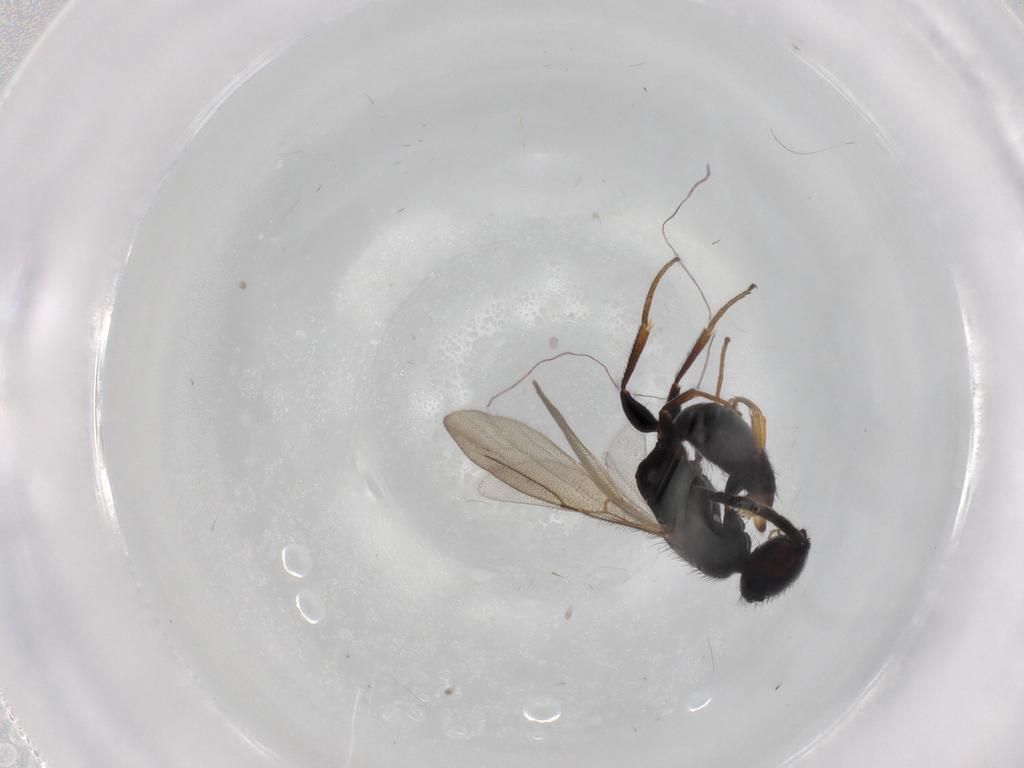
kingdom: Animalia
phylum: Arthropoda
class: Insecta
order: Hymenoptera
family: Bethylidae
